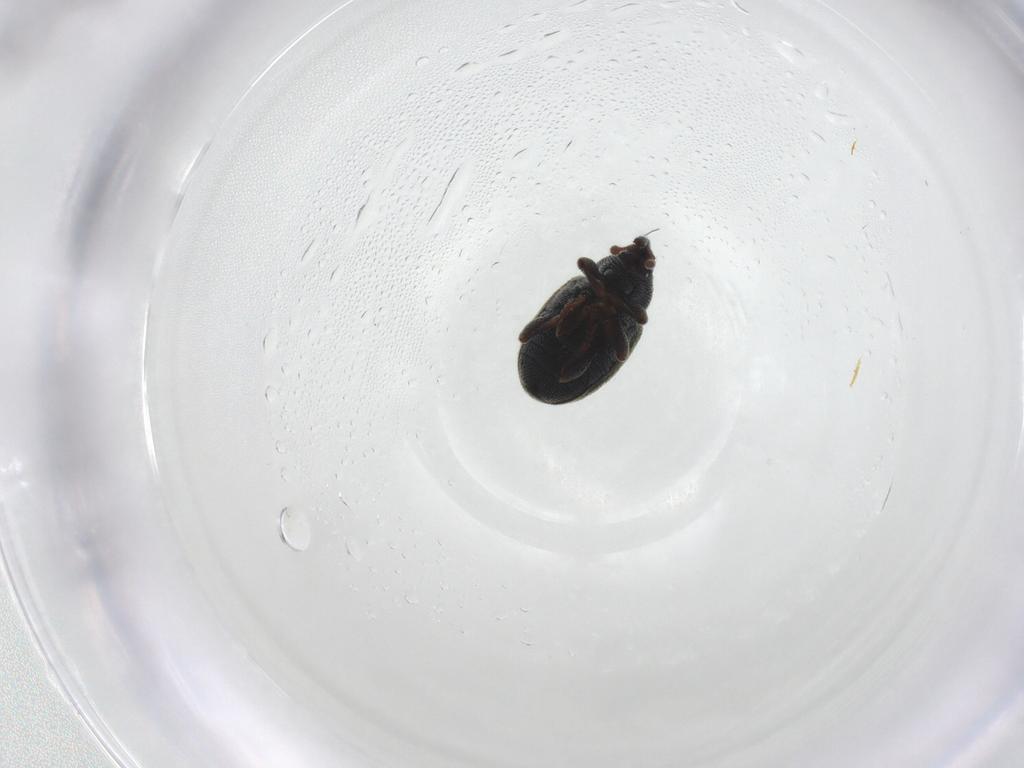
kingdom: Animalia
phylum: Arthropoda
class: Insecta
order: Coleoptera
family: Curculionidae
